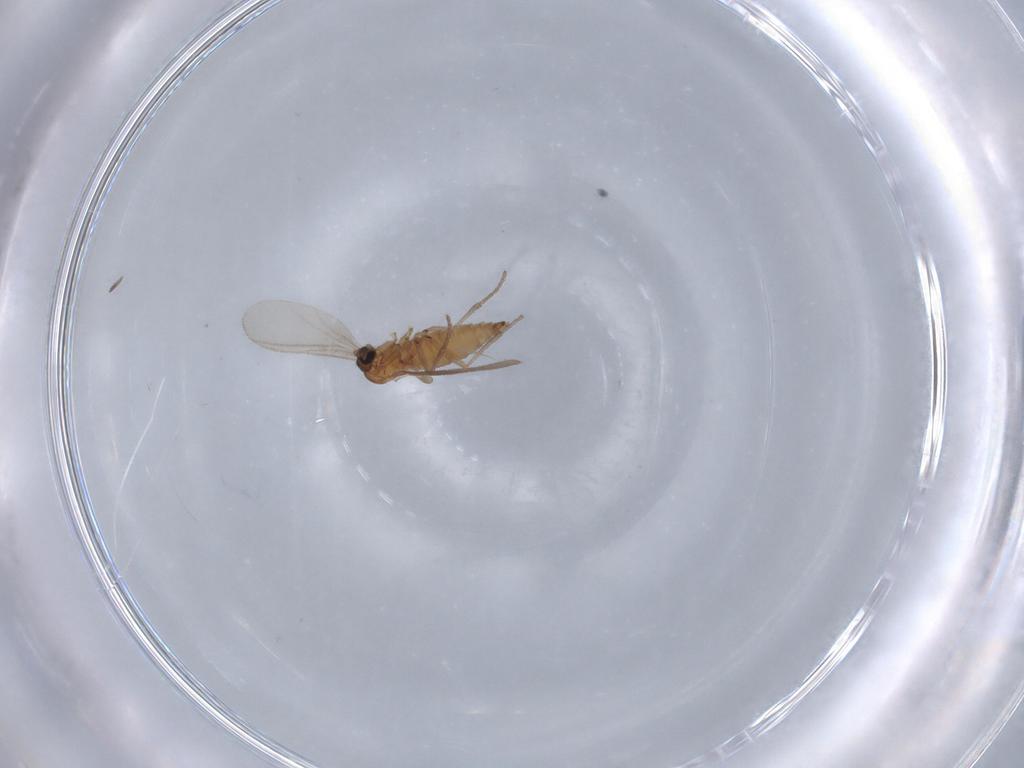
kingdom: Animalia
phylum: Arthropoda
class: Insecta
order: Diptera
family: Sciaridae
